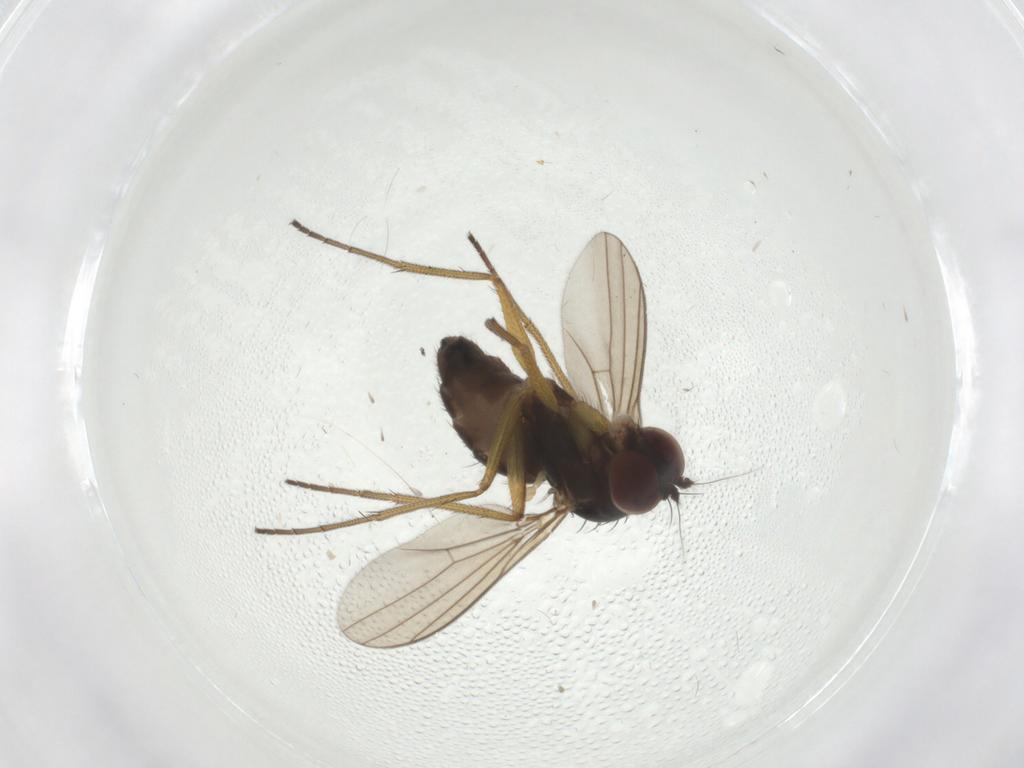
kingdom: Animalia
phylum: Arthropoda
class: Insecta
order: Diptera
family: Dolichopodidae
